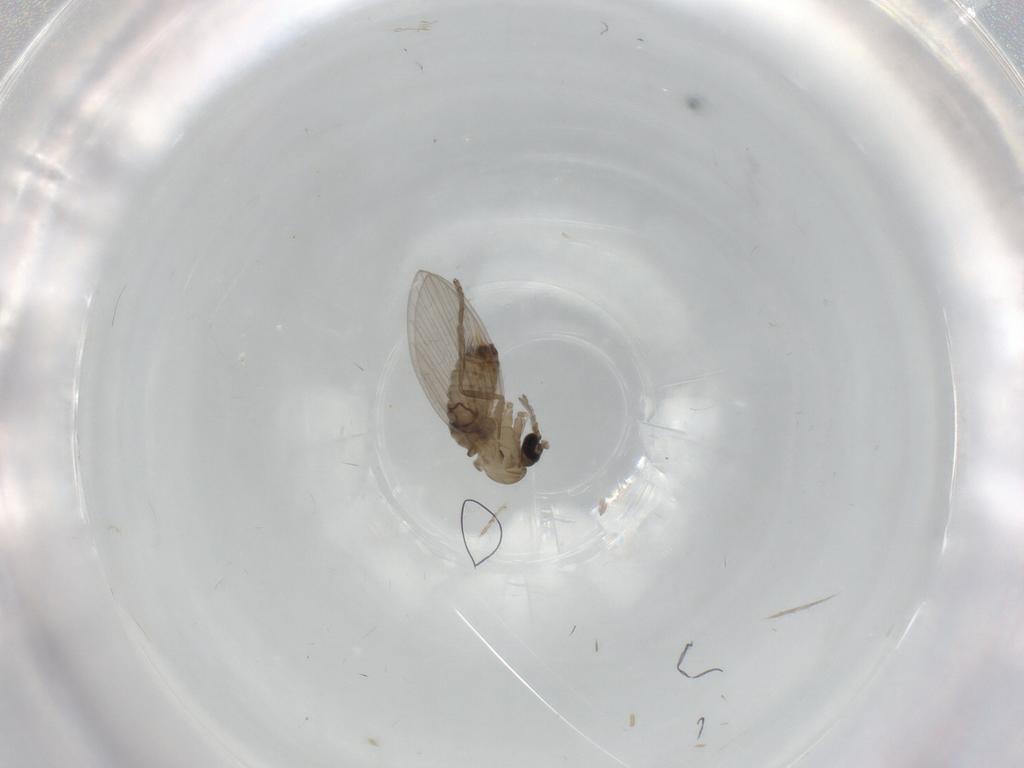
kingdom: Animalia
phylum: Arthropoda
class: Insecta
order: Diptera
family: Psychodidae
